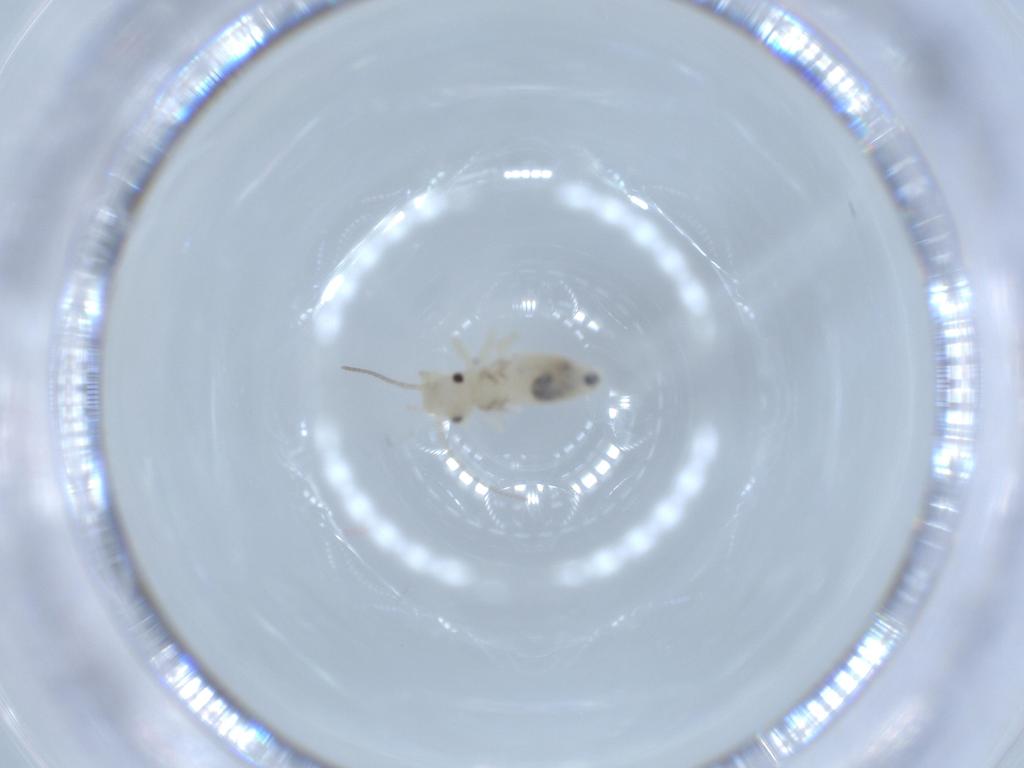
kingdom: Animalia
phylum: Arthropoda
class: Insecta
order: Psocodea
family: Caeciliusidae
